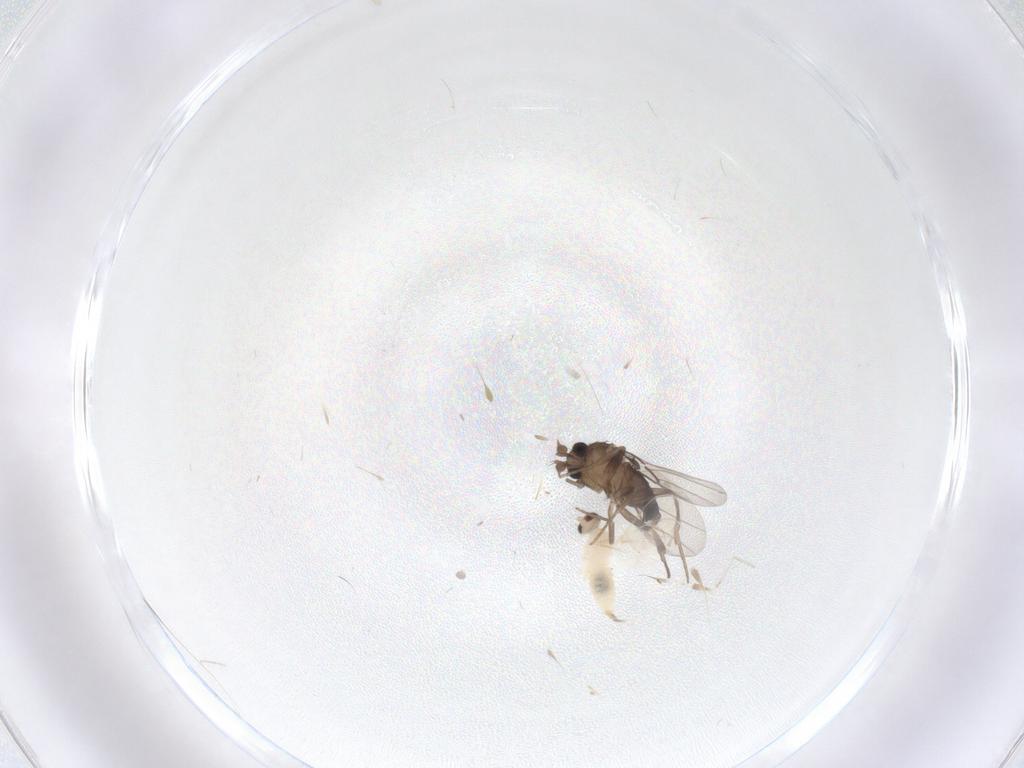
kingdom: Animalia
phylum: Arthropoda
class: Insecta
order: Diptera
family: Phoridae
